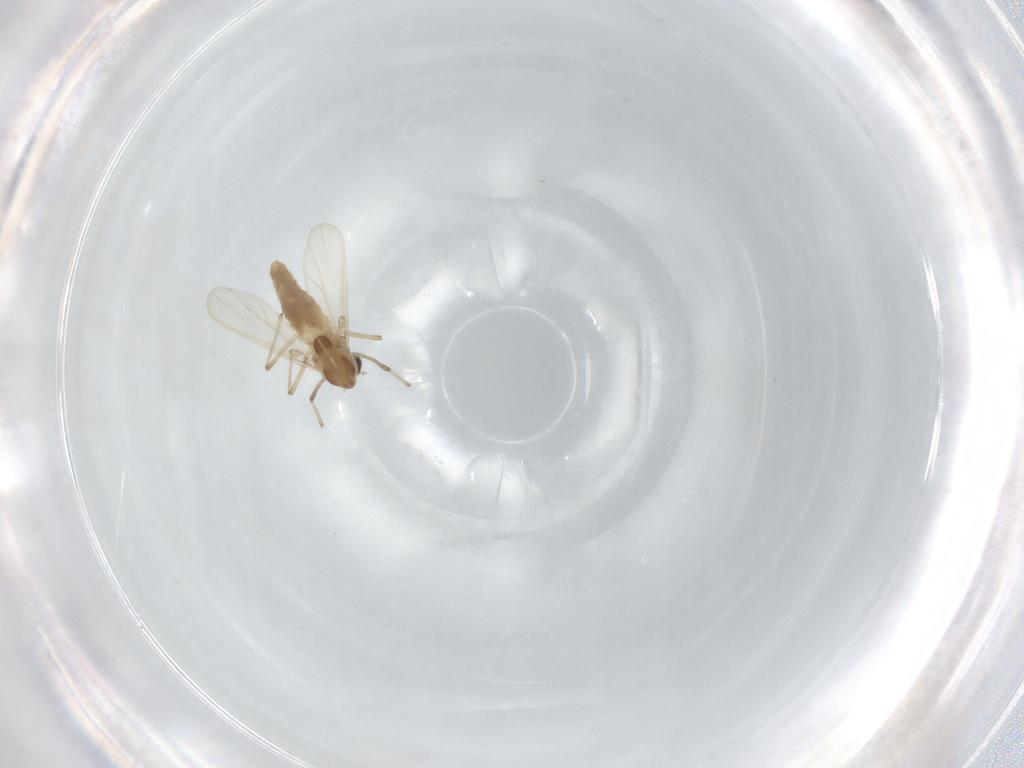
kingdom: Animalia
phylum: Arthropoda
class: Insecta
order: Diptera
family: Chironomidae
